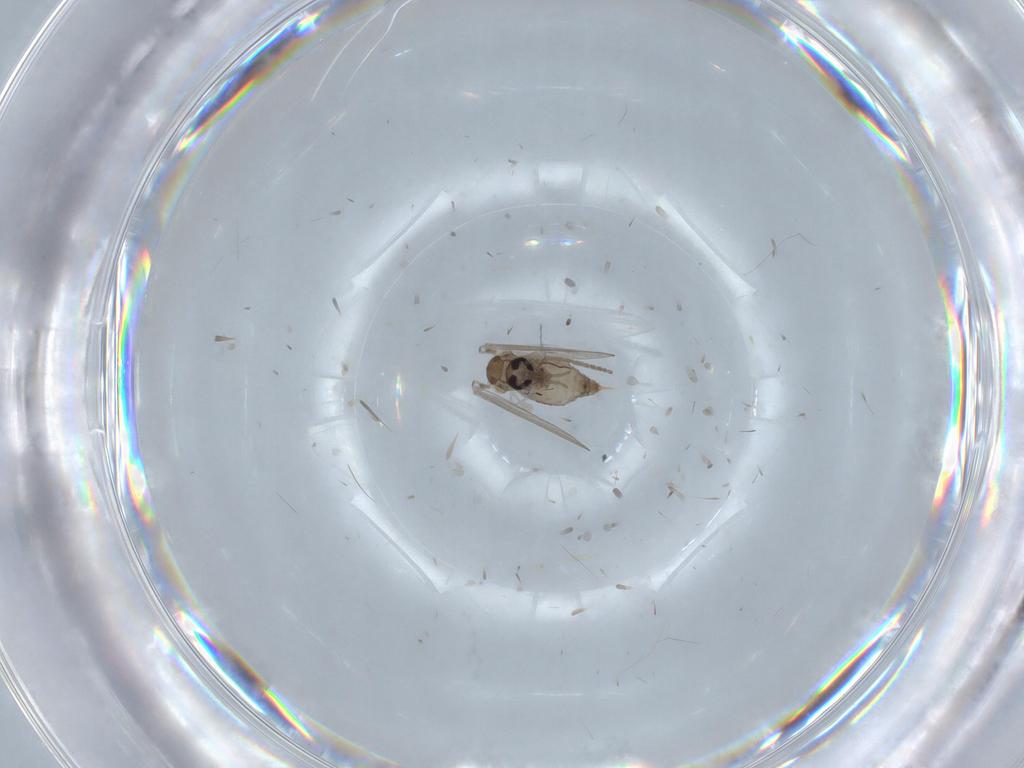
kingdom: Animalia
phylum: Arthropoda
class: Insecta
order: Diptera
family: Psychodidae
